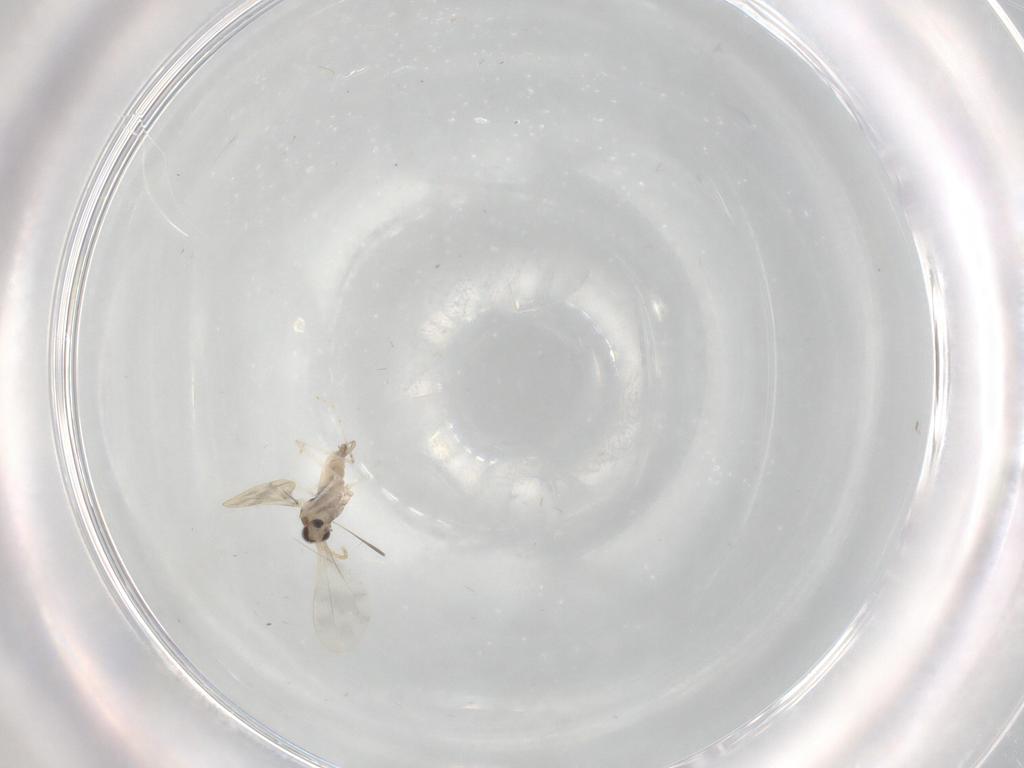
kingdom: Animalia
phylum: Arthropoda
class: Insecta
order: Diptera
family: Cecidomyiidae
